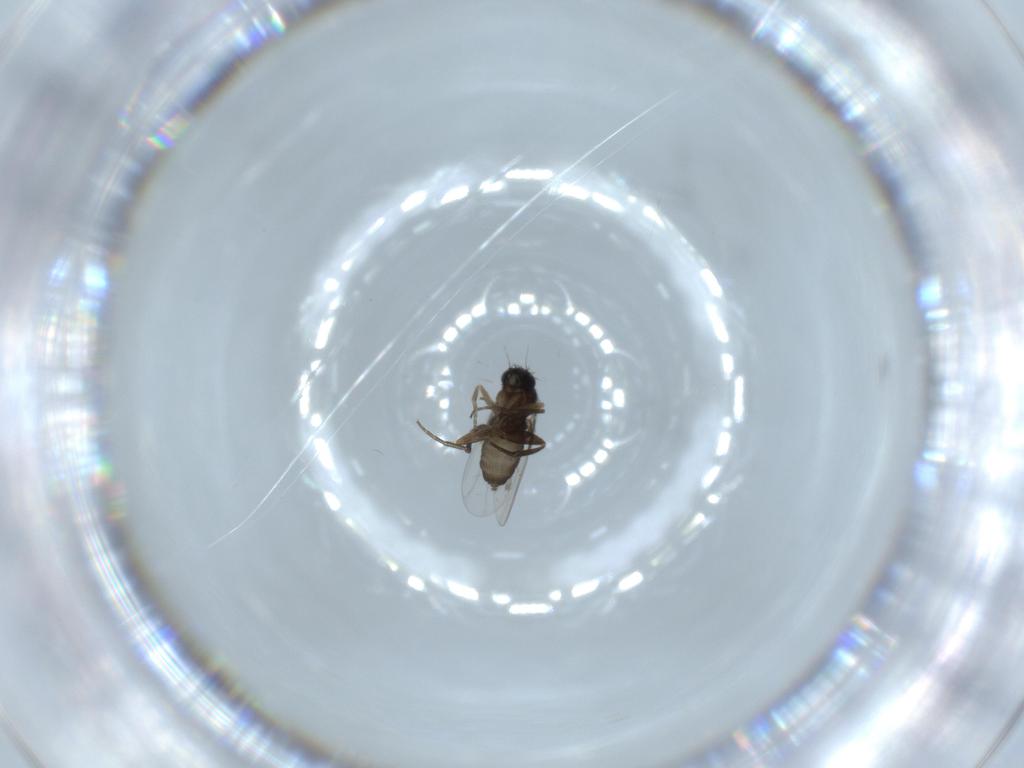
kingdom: Animalia
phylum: Arthropoda
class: Insecta
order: Diptera
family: Phoridae
